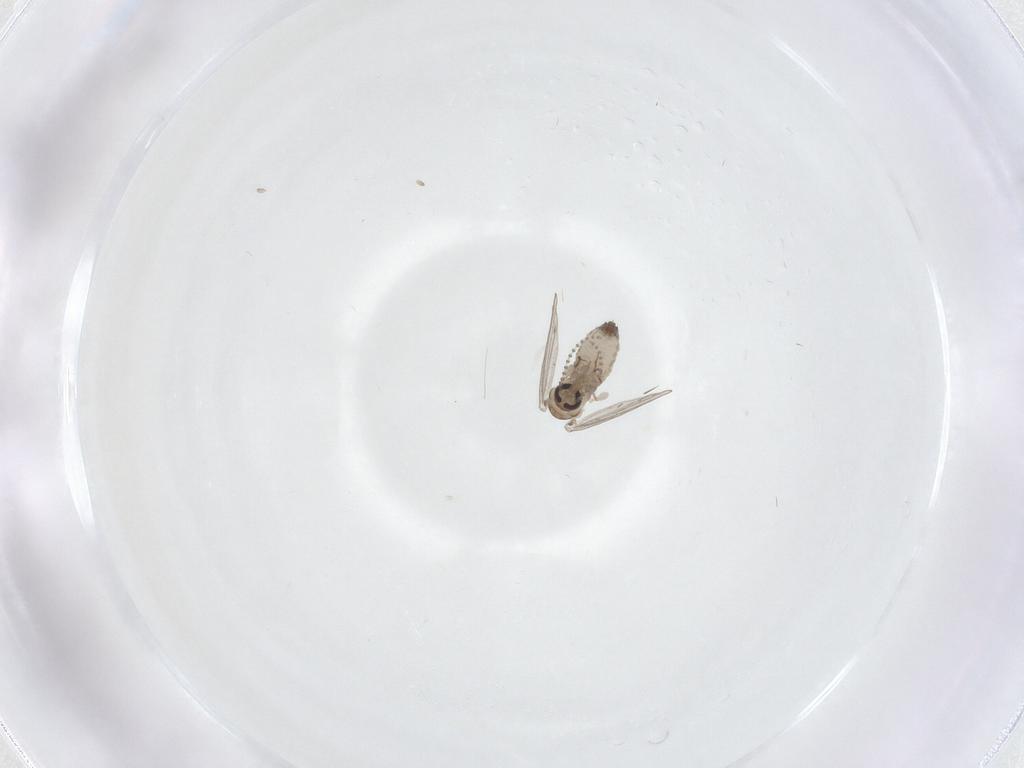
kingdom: Animalia
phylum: Arthropoda
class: Insecta
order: Diptera
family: Psychodidae
